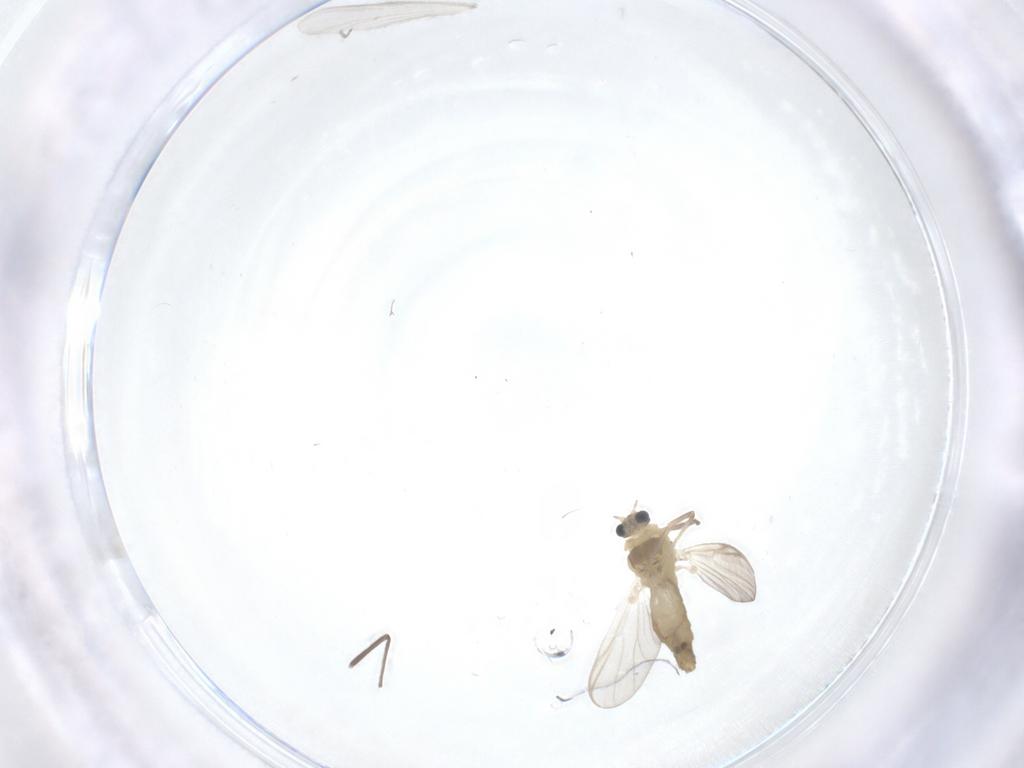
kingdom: Animalia
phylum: Arthropoda
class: Insecta
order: Diptera
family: Chironomidae
